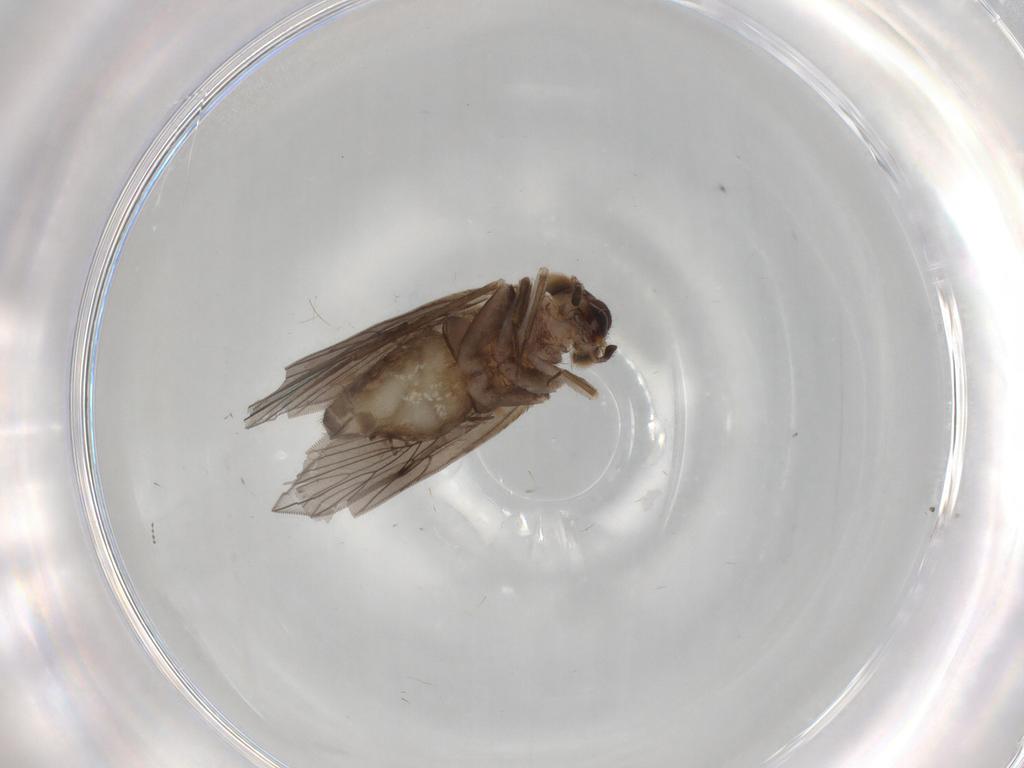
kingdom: Animalia
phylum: Arthropoda
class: Insecta
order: Psocodea
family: Lepidopsocidae
